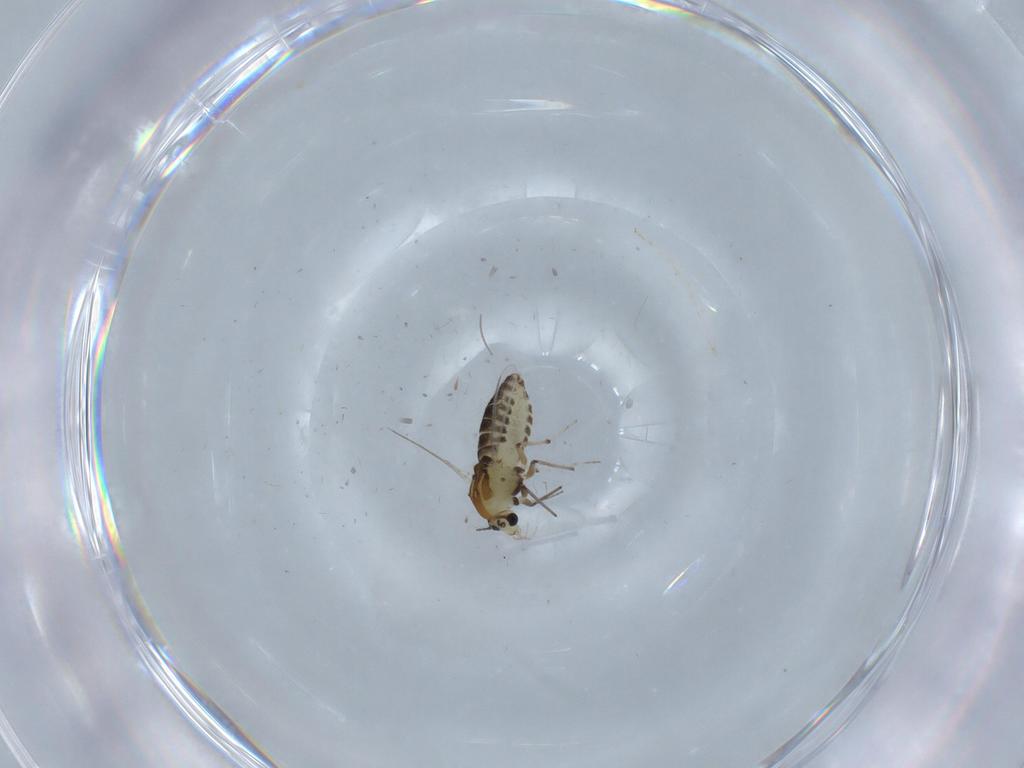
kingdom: Animalia
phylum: Arthropoda
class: Insecta
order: Diptera
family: Chironomidae
